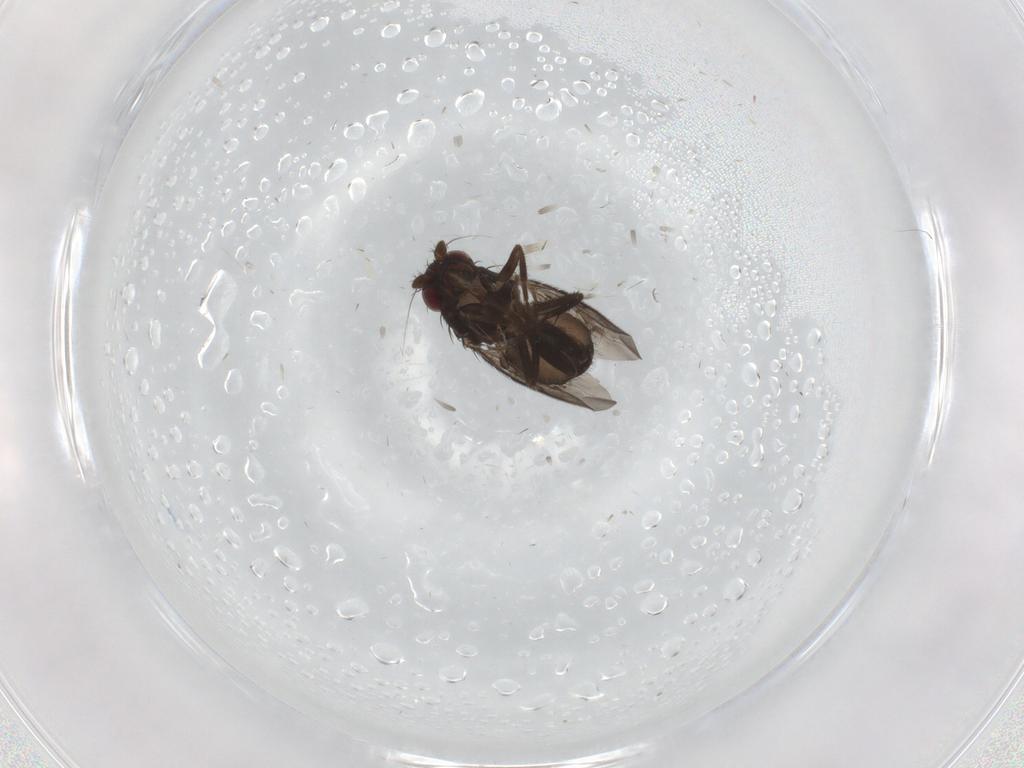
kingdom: Animalia
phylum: Arthropoda
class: Insecta
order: Diptera
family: Sphaeroceridae
